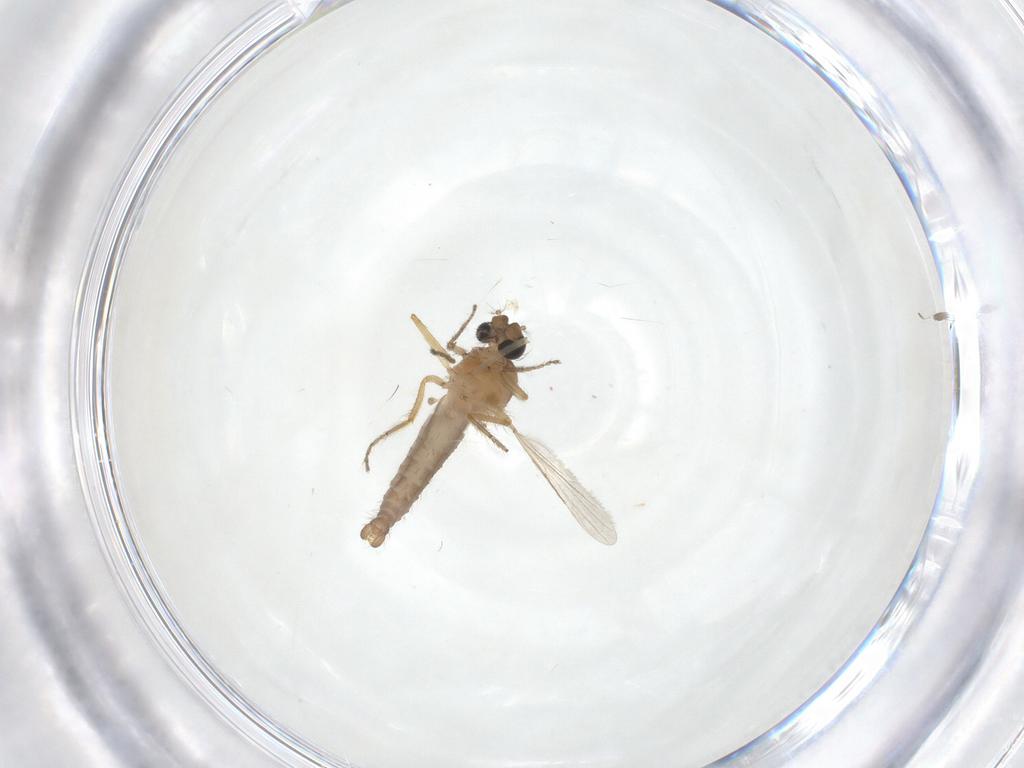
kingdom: Animalia
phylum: Arthropoda
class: Insecta
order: Diptera
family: Ceratopogonidae
